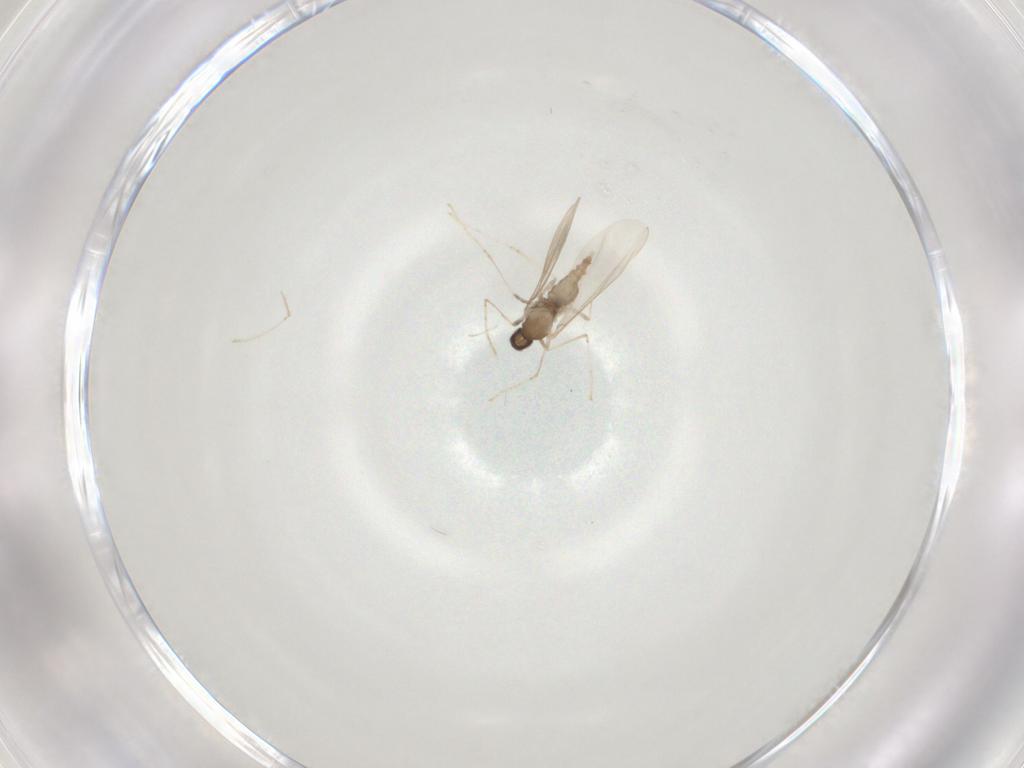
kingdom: Animalia
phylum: Arthropoda
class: Insecta
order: Diptera
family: Cecidomyiidae
